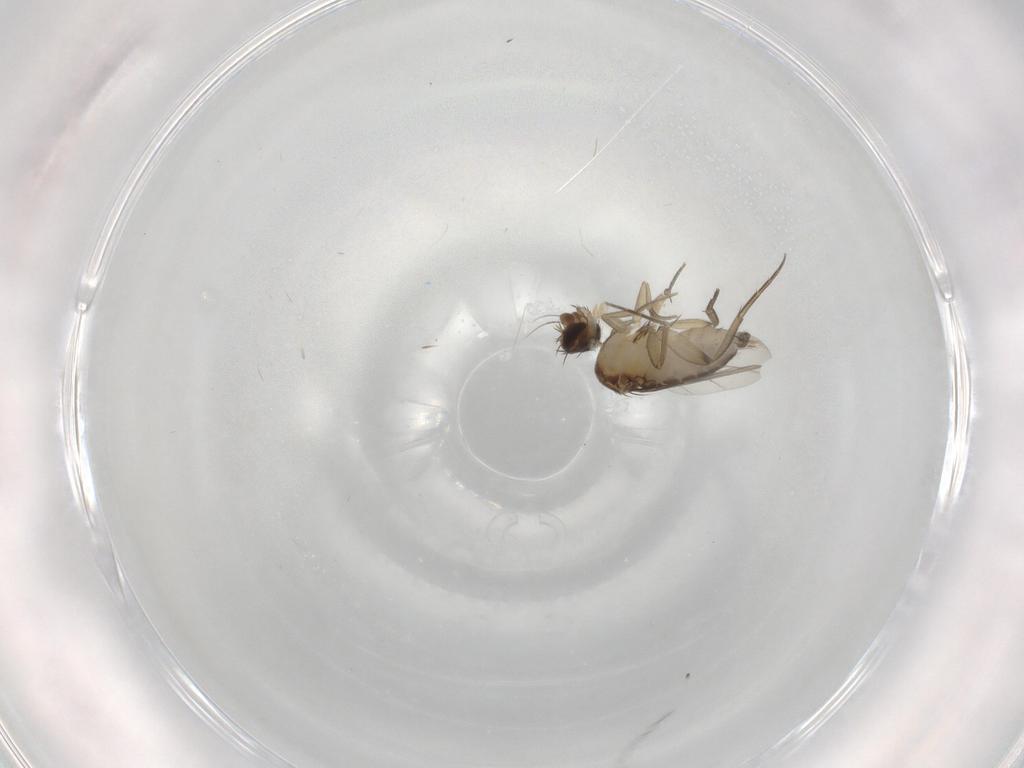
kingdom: Animalia
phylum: Arthropoda
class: Insecta
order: Diptera
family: Phoridae
